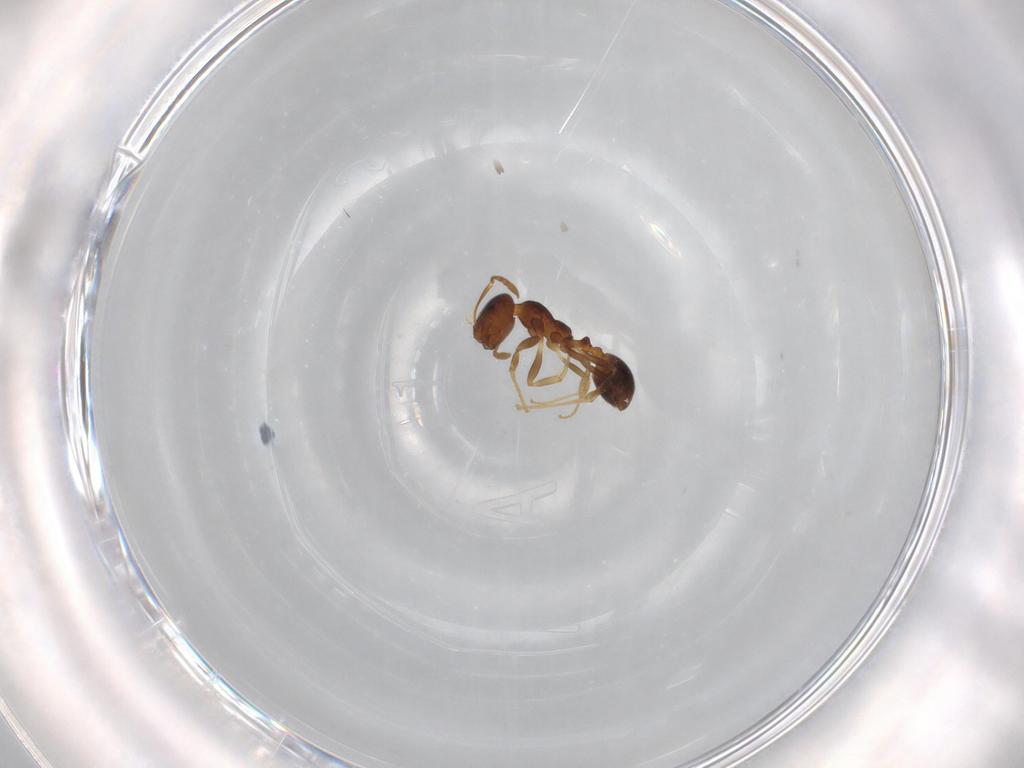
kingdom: Animalia
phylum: Arthropoda
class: Insecta
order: Hymenoptera
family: Formicidae
